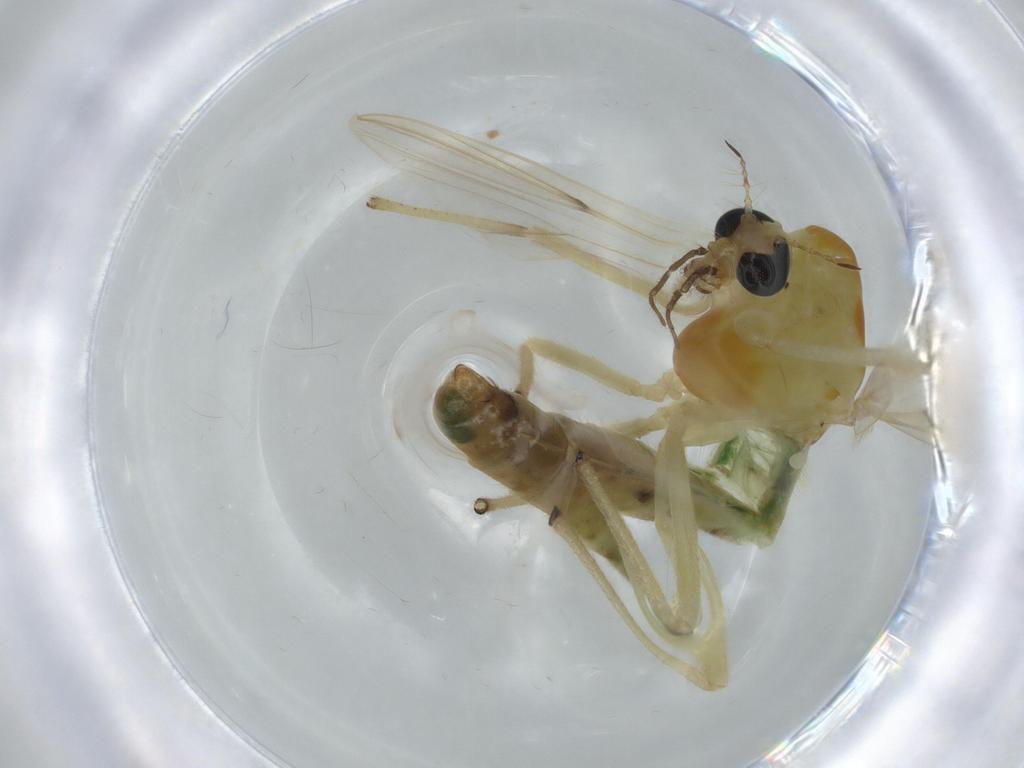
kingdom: Animalia
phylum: Arthropoda
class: Insecta
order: Diptera
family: Chironomidae
